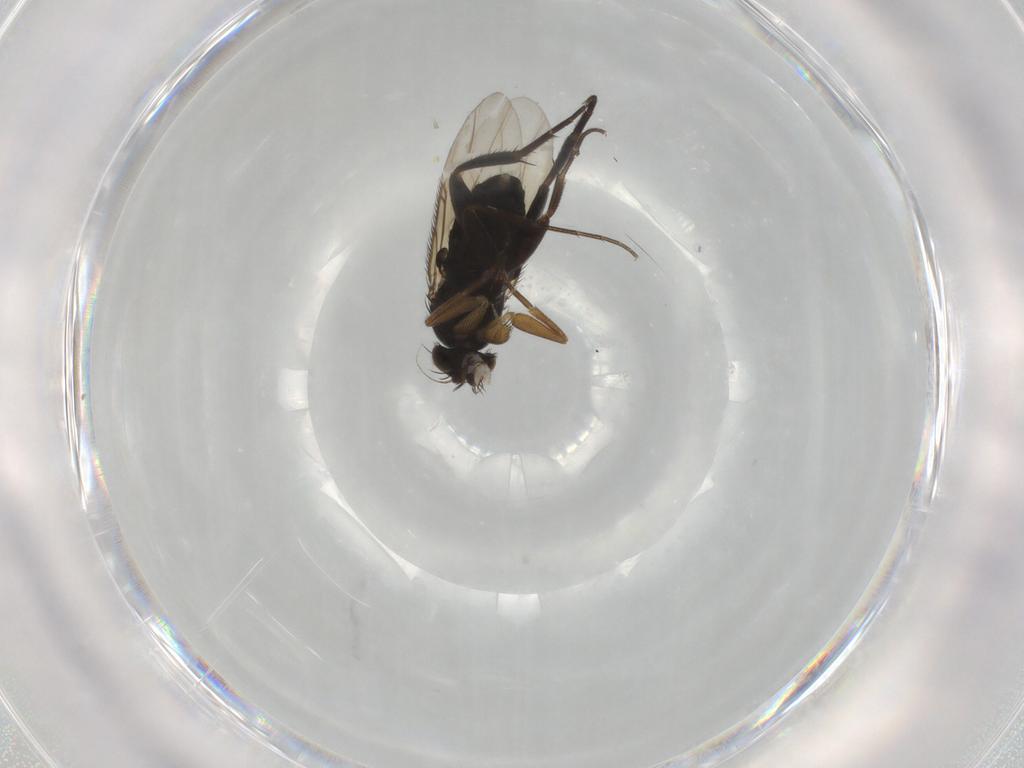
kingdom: Animalia
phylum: Arthropoda
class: Insecta
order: Diptera
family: Phoridae
